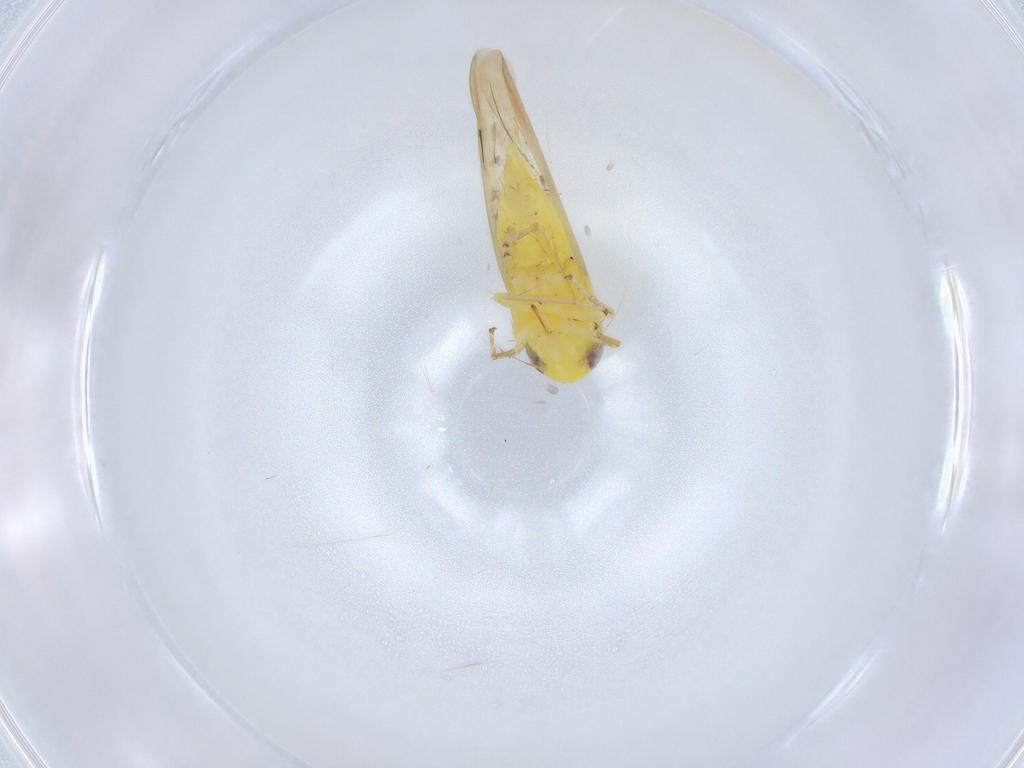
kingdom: Animalia
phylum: Arthropoda
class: Insecta
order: Hemiptera
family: Cicadellidae
